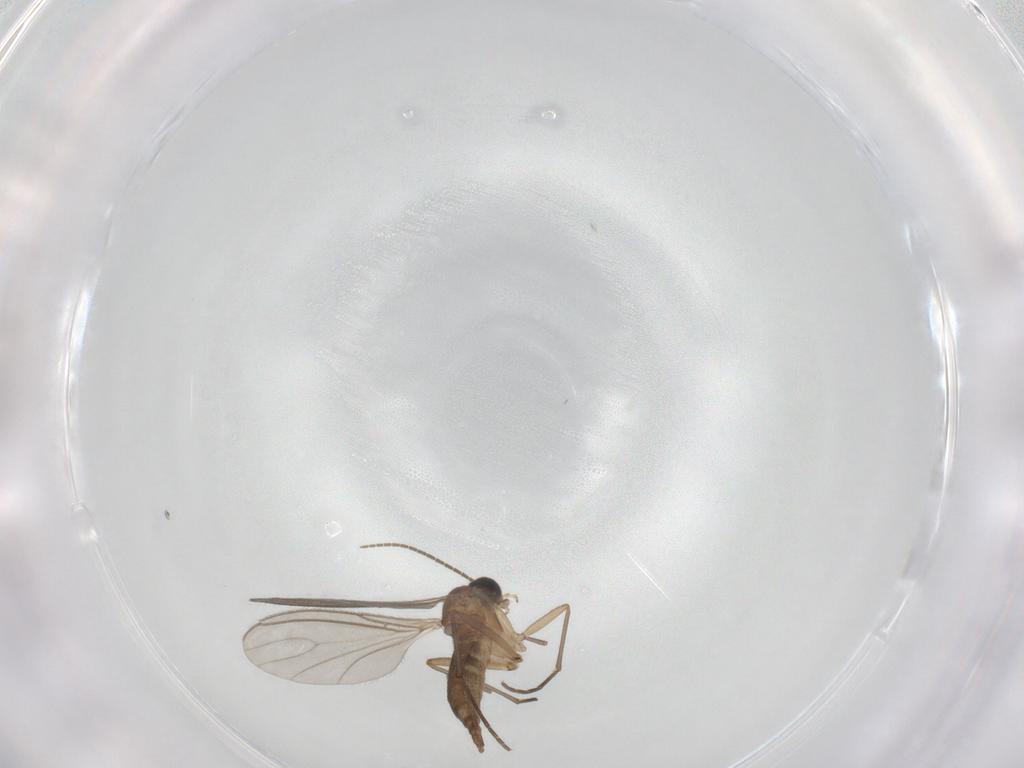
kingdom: Animalia
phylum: Arthropoda
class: Insecta
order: Diptera
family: Sciaridae
